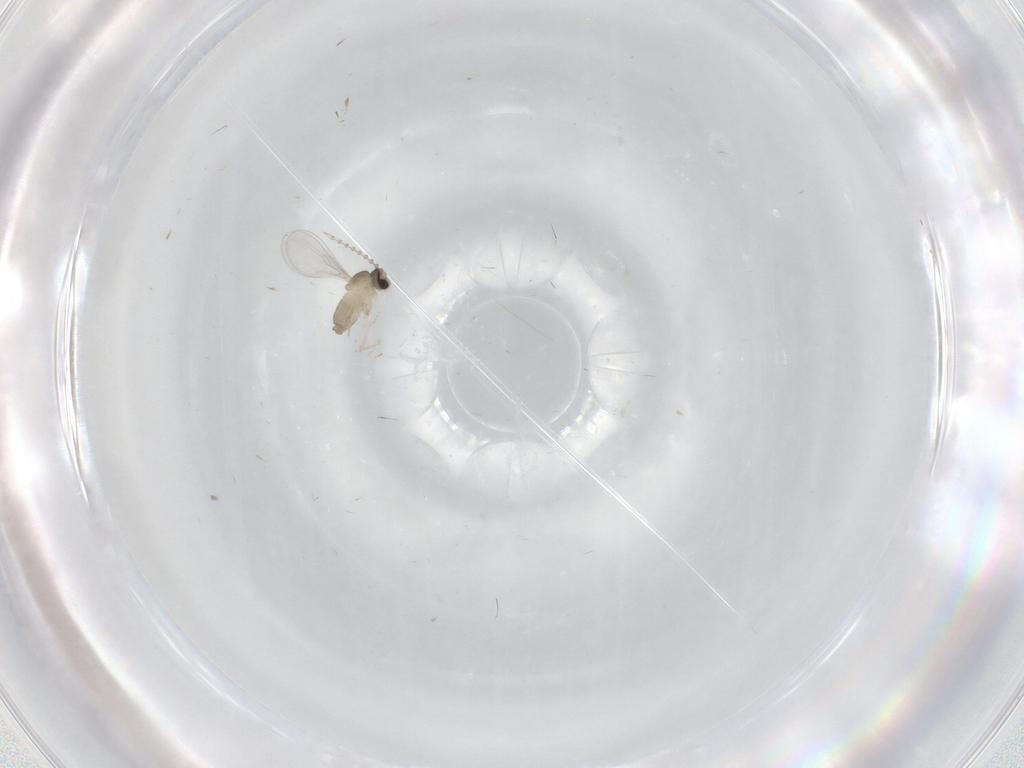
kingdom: Animalia
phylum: Arthropoda
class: Insecta
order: Diptera
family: Cecidomyiidae
